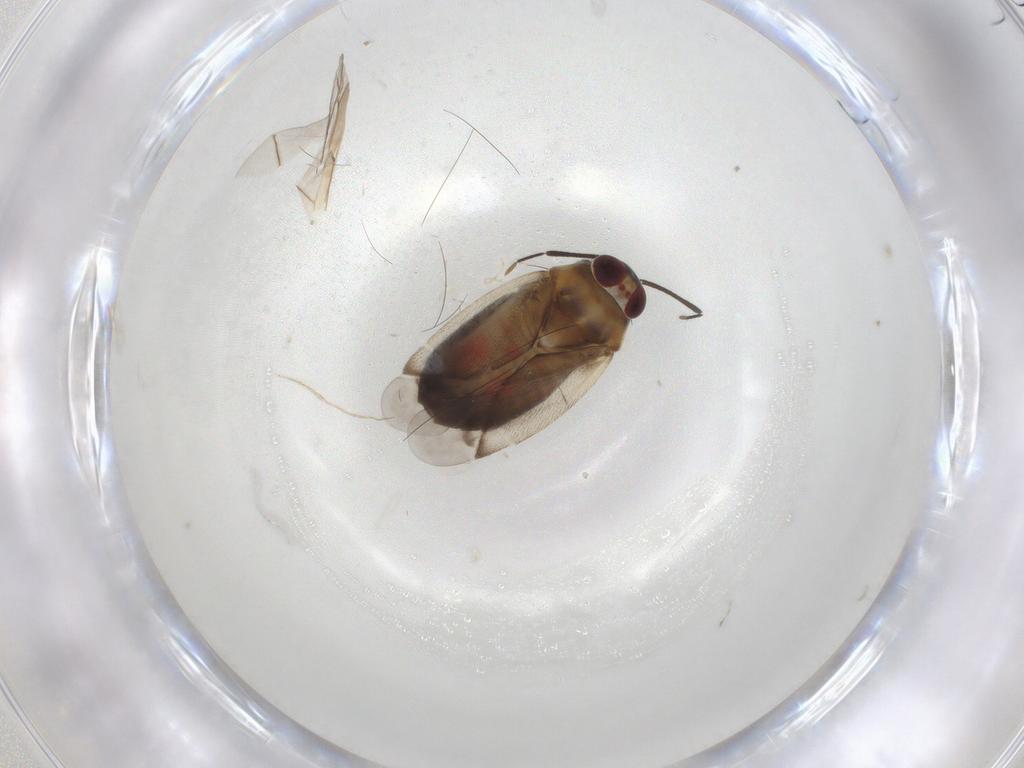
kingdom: Animalia
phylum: Arthropoda
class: Insecta
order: Hemiptera
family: Miridae
